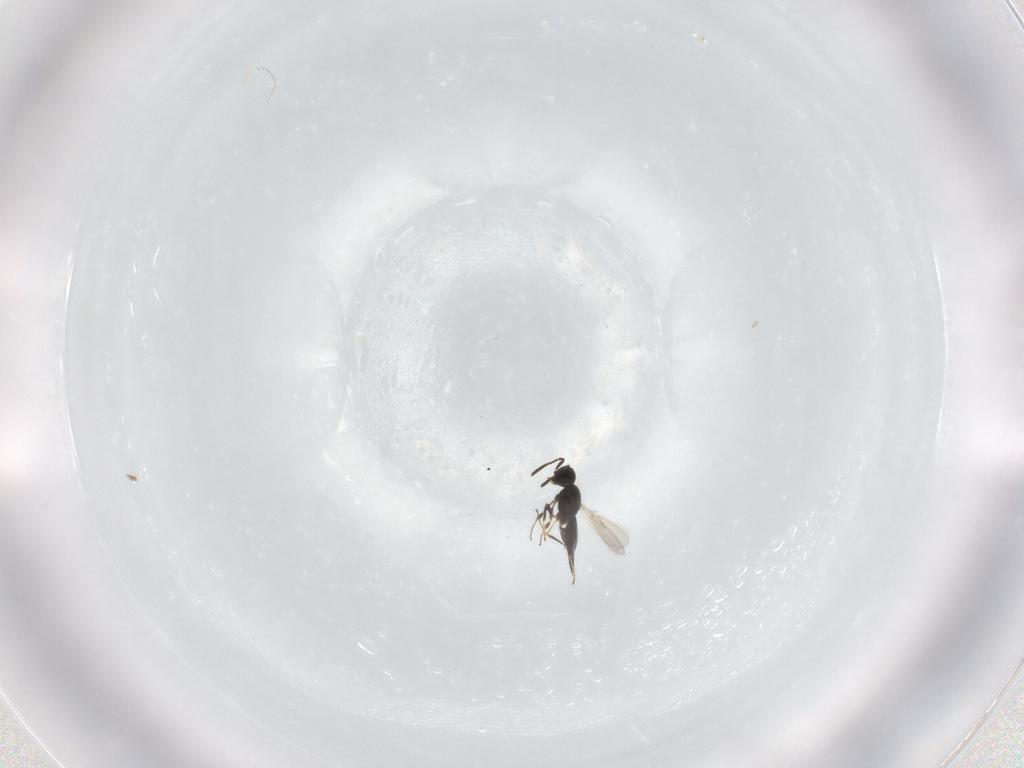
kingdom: Animalia
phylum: Arthropoda
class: Insecta
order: Hymenoptera
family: Scelionidae
